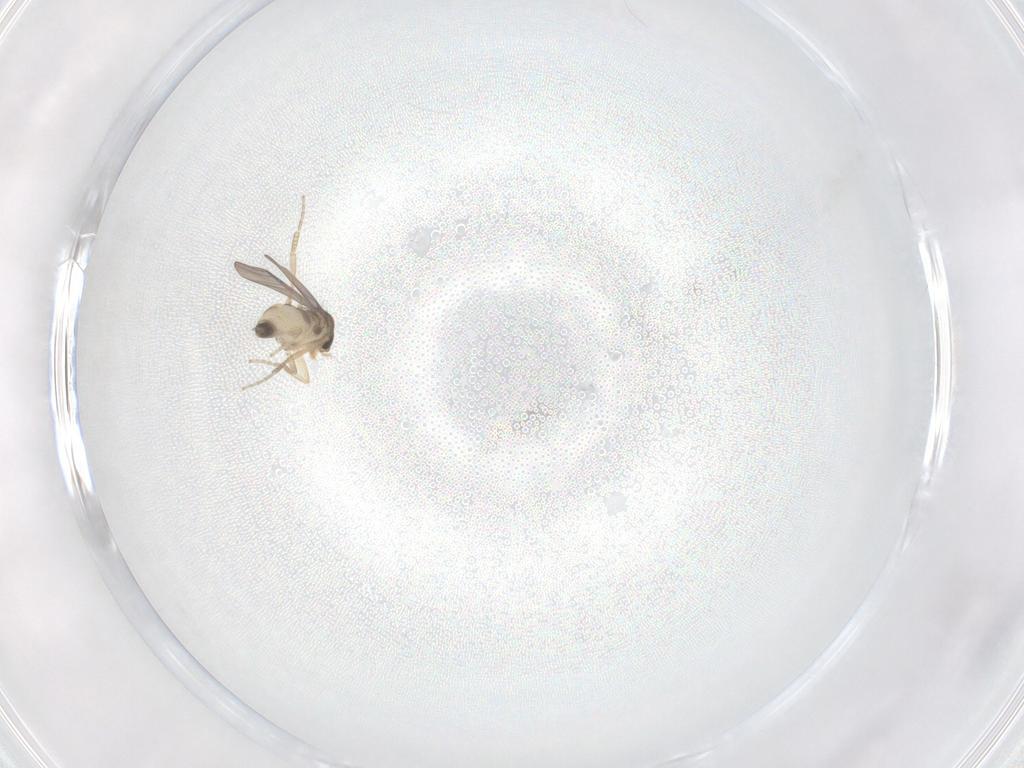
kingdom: Animalia
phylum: Arthropoda
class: Insecta
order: Diptera
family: Phoridae
